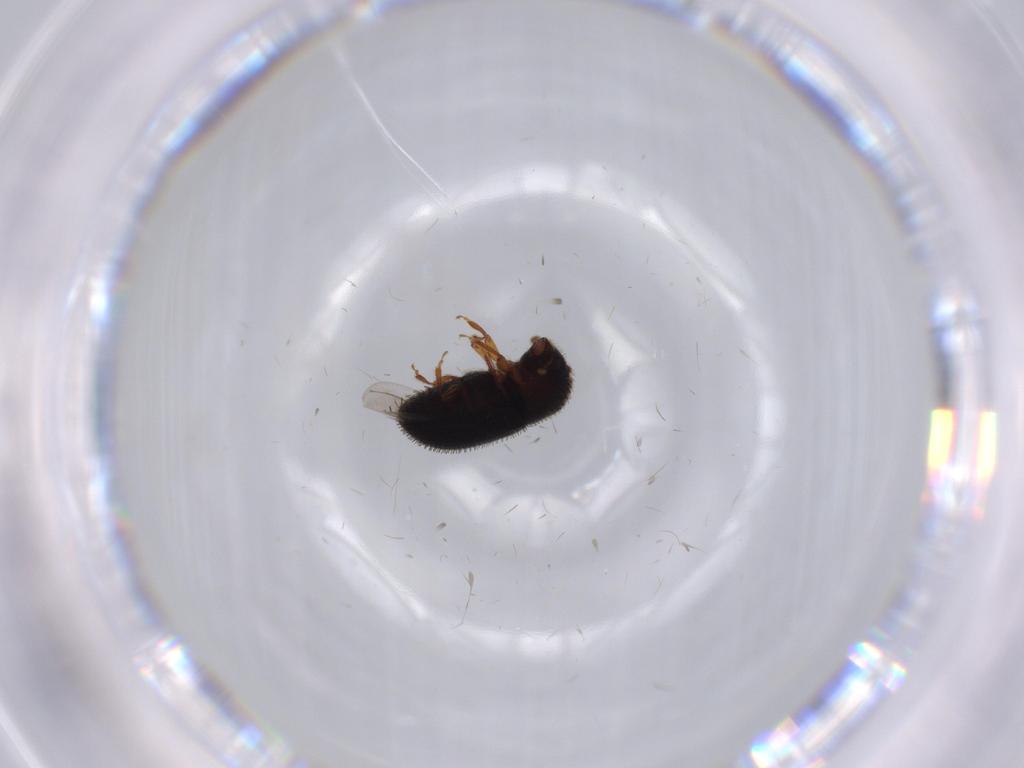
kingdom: Animalia
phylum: Arthropoda
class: Insecta
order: Coleoptera
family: Curculionidae
